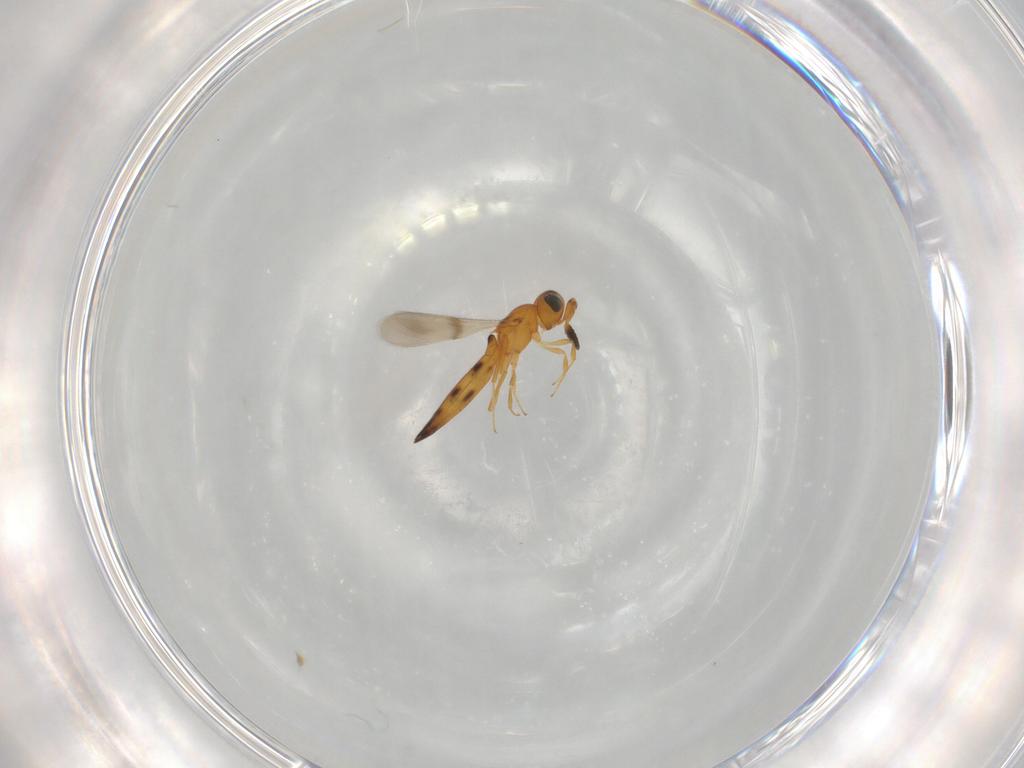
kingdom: Animalia
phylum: Arthropoda
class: Insecta
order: Hymenoptera
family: Scelionidae
